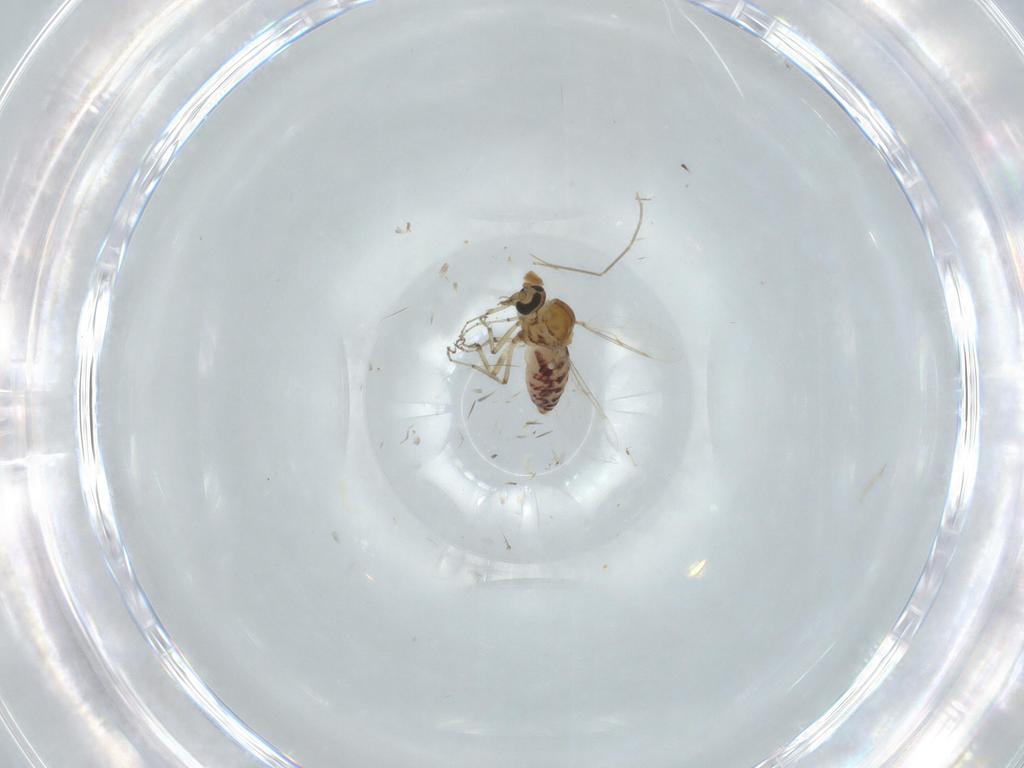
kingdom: Animalia
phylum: Arthropoda
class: Insecta
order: Diptera
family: Ceratopogonidae
